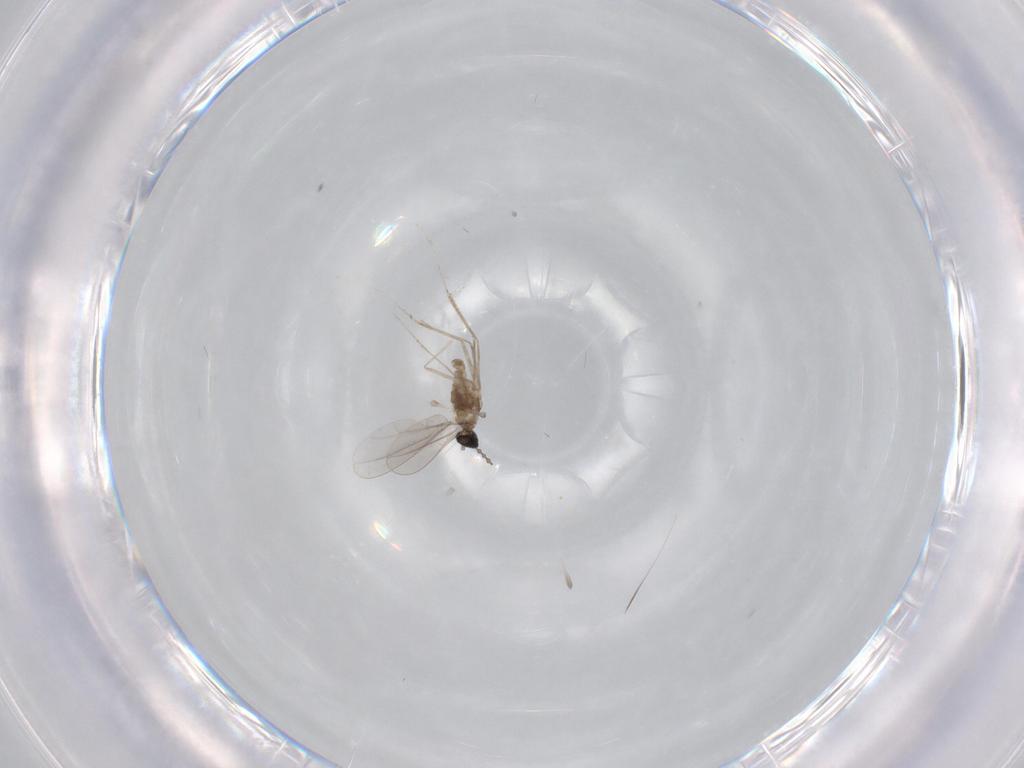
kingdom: Animalia
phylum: Arthropoda
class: Insecta
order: Diptera
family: Cecidomyiidae
